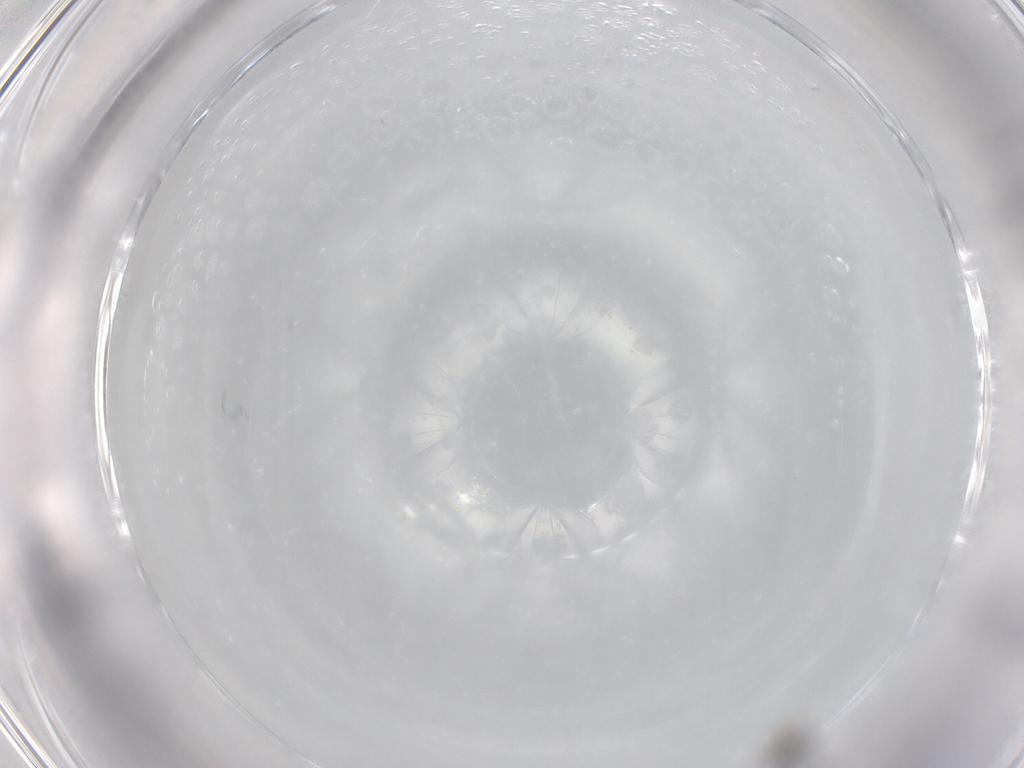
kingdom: Animalia
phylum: Arthropoda
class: Insecta
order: Hymenoptera
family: Azotidae
